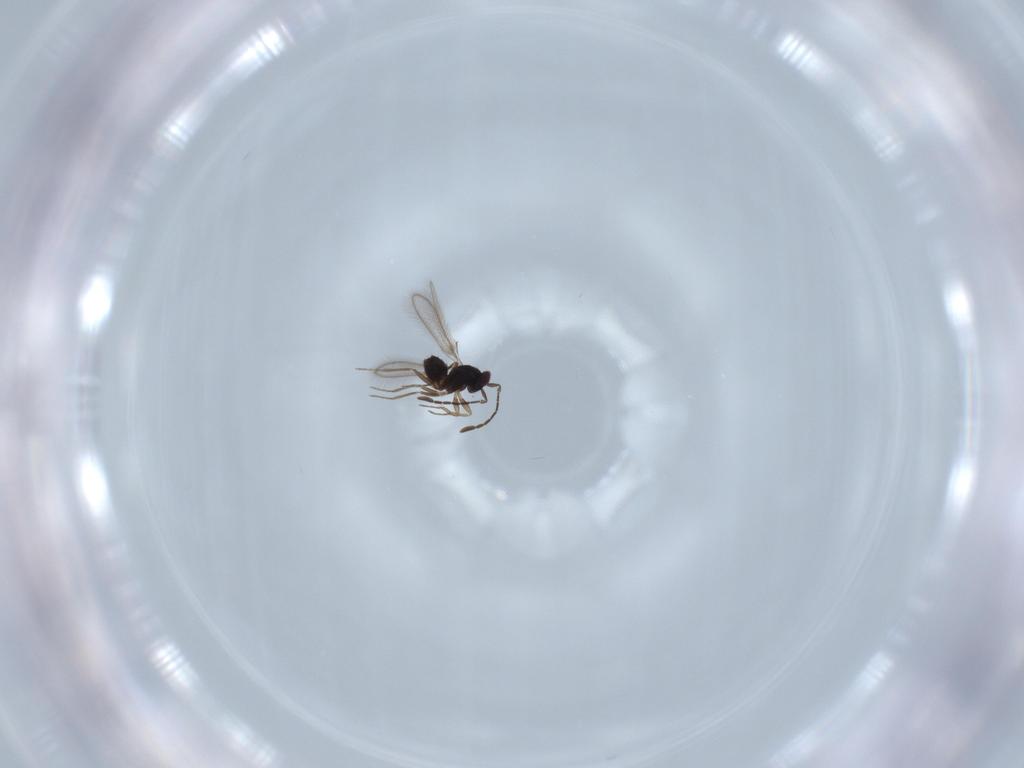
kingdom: Animalia
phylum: Arthropoda
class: Insecta
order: Hymenoptera
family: Mymaridae
